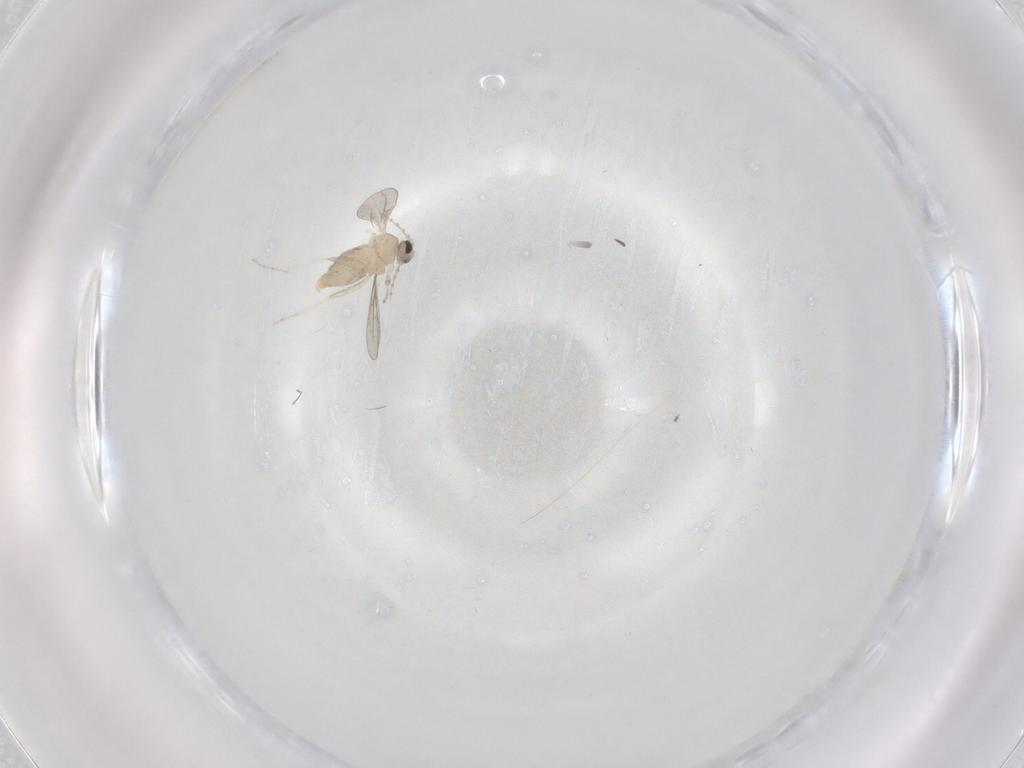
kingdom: Animalia
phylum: Arthropoda
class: Insecta
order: Diptera
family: Cecidomyiidae
